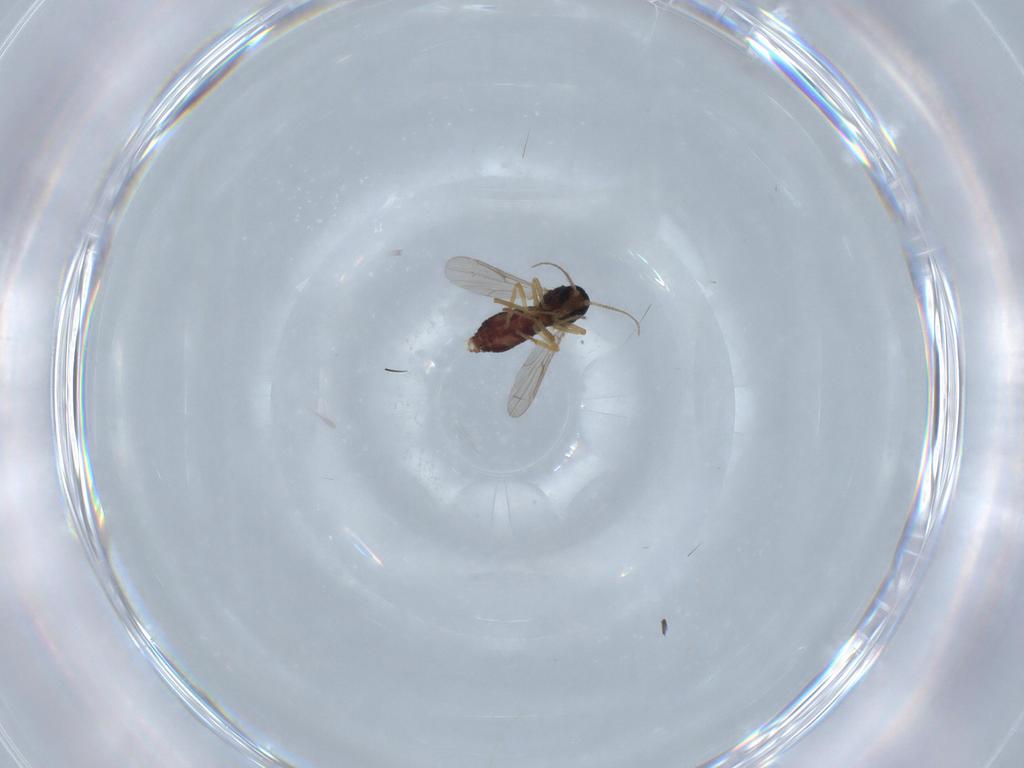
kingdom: Animalia
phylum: Arthropoda
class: Insecta
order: Diptera
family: Ceratopogonidae
